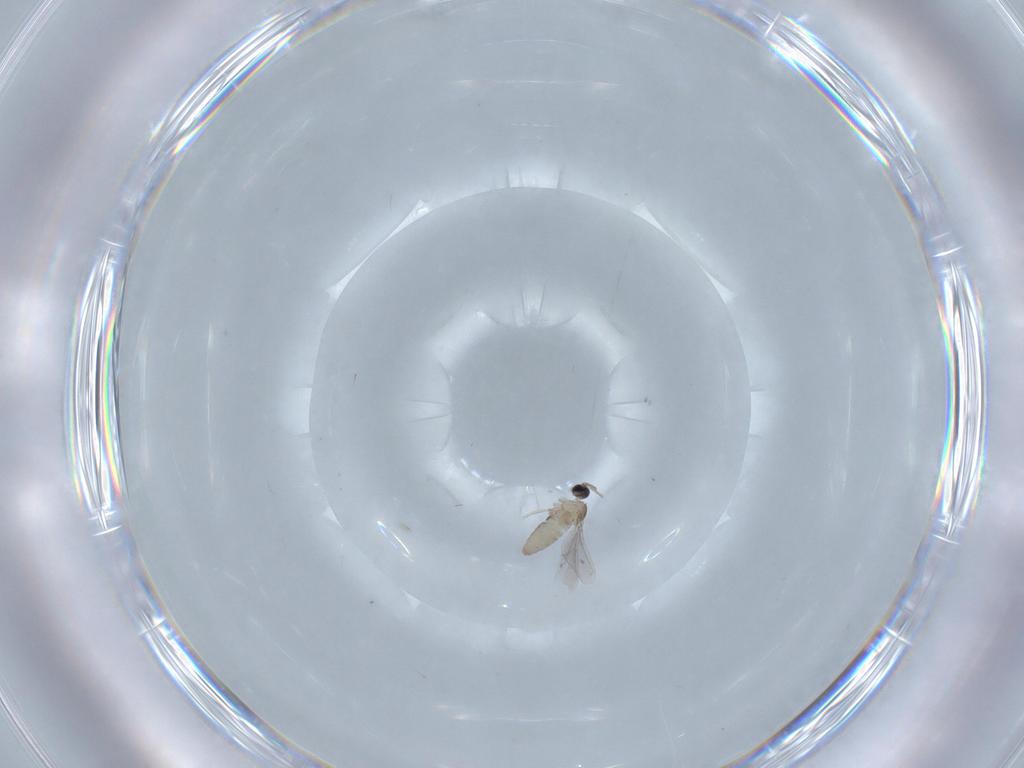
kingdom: Animalia
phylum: Arthropoda
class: Insecta
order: Diptera
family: Cecidomyiidae
